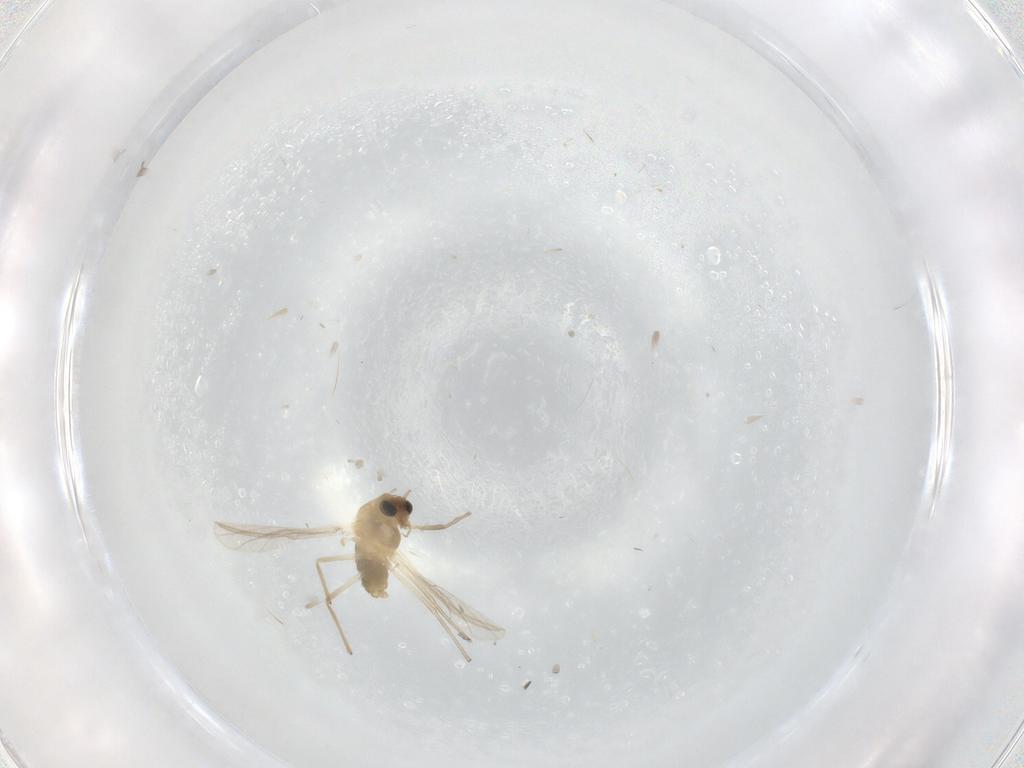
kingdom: Animalia
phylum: Arthropoda
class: Insecta
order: Diptera
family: Chironomidae
